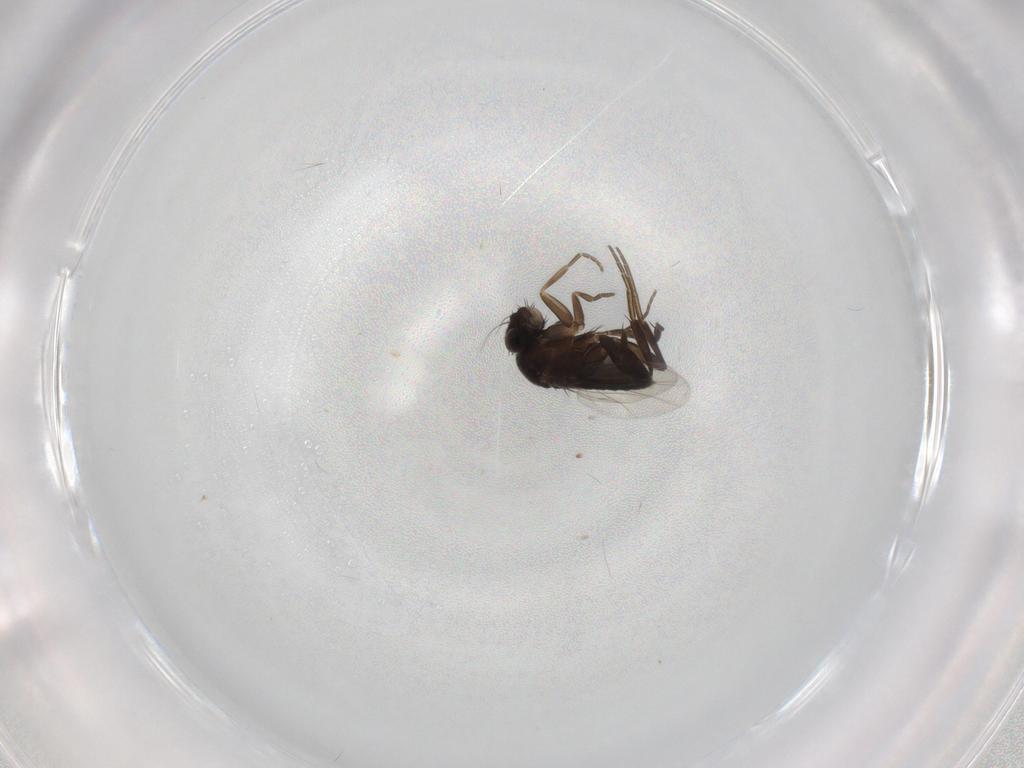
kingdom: Animalia
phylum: Arthropoda
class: Insecta
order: Diptera
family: Phoridae
